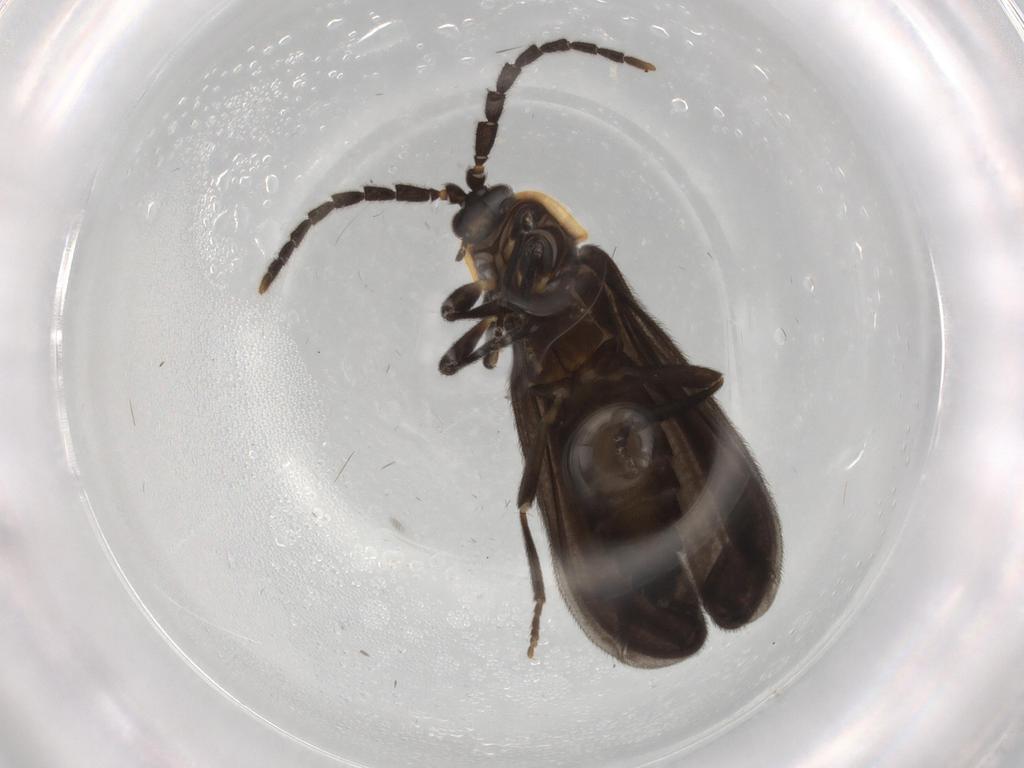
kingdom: Animalia
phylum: Arthropoda
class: Insecta
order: Coleoptera
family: Lycidae
